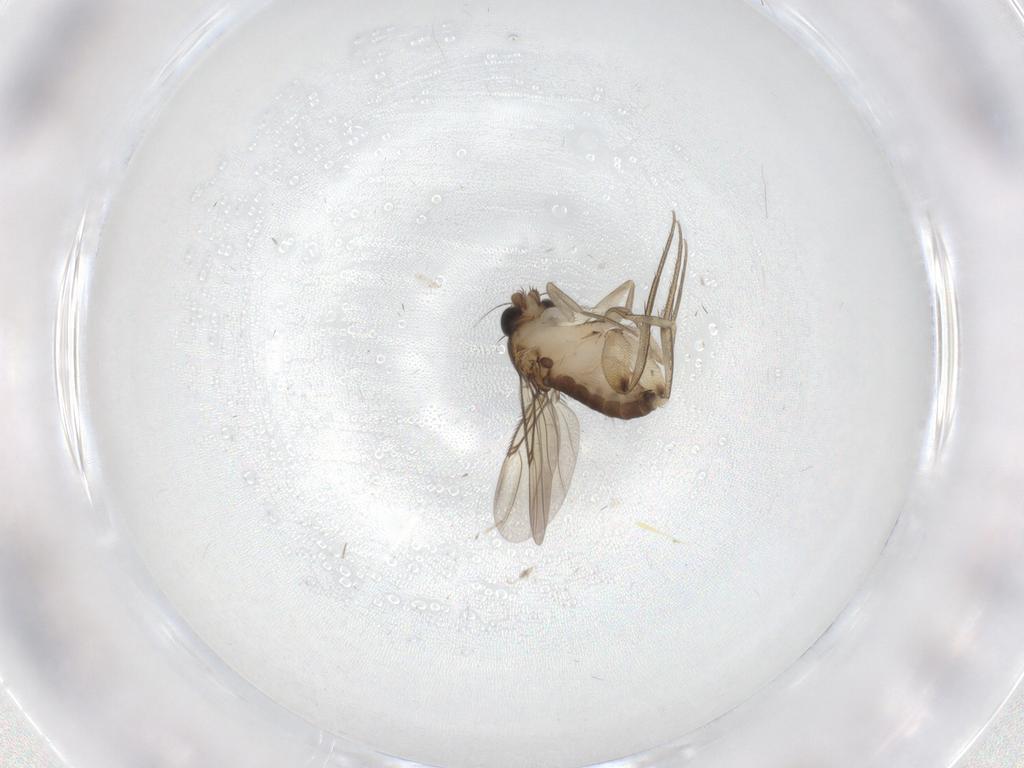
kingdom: Animalia
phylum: Arthropoda
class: Insecta
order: Diptera
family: Phoridae
